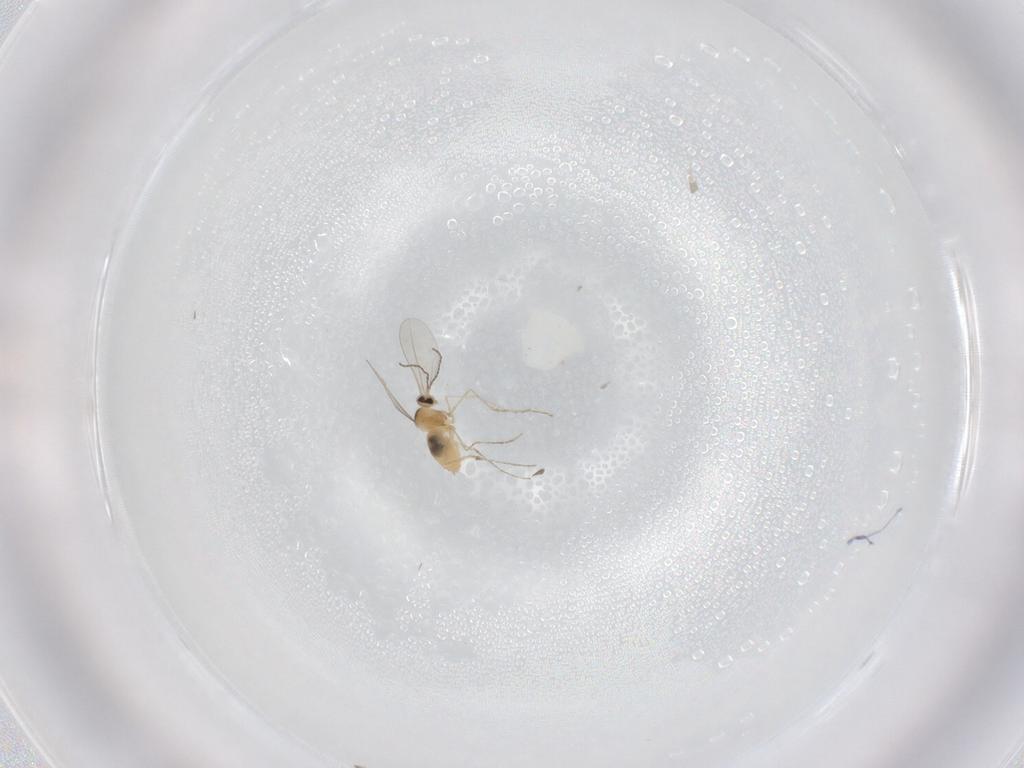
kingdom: Animalia
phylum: Arthropoda
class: Insecta
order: Diptera
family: Cecidomyiidae
